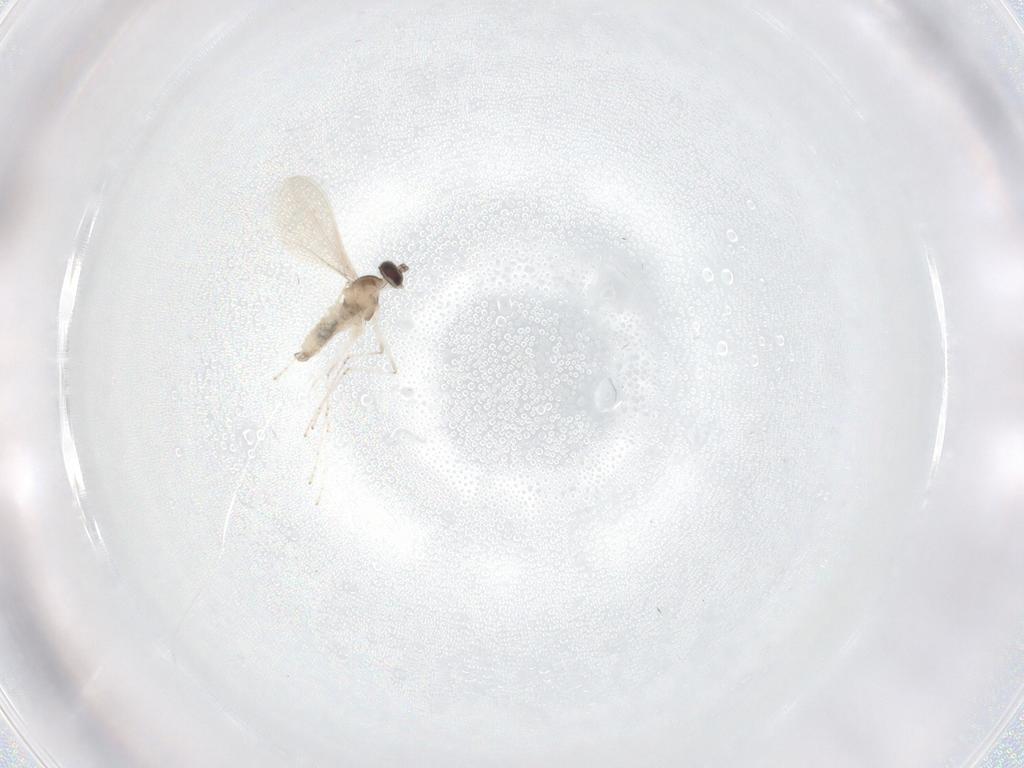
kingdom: Animalia
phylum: Arthropoda
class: Insecta
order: Diptera
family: Cecidomyiidae
